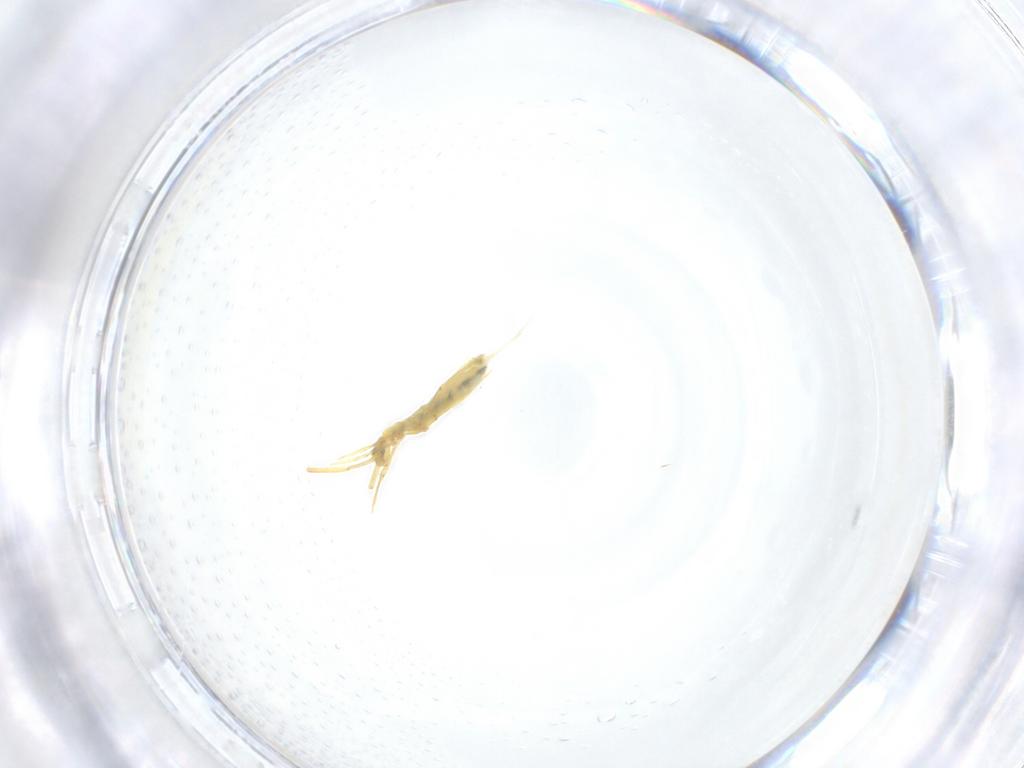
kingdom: Animalia
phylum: Arthropoda
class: Collembola
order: Entomobryomorpha
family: Entomobryidae
